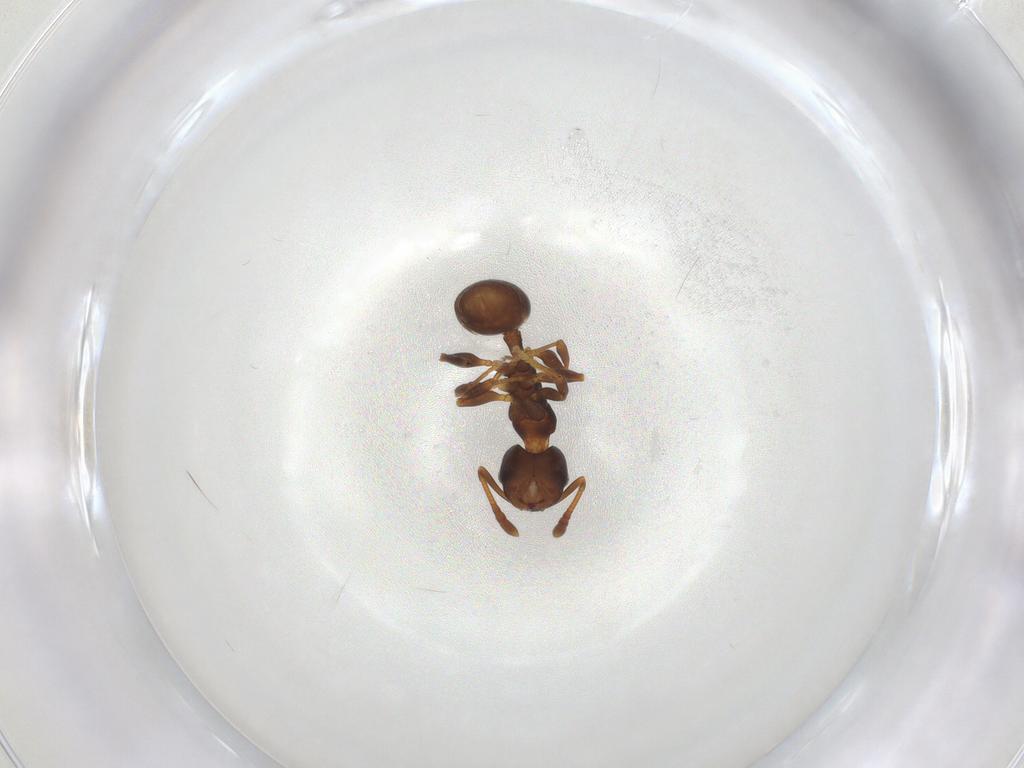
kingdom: Animalia
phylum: Arthropoda
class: Insecta
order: Hymenoptera
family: Formicidae
